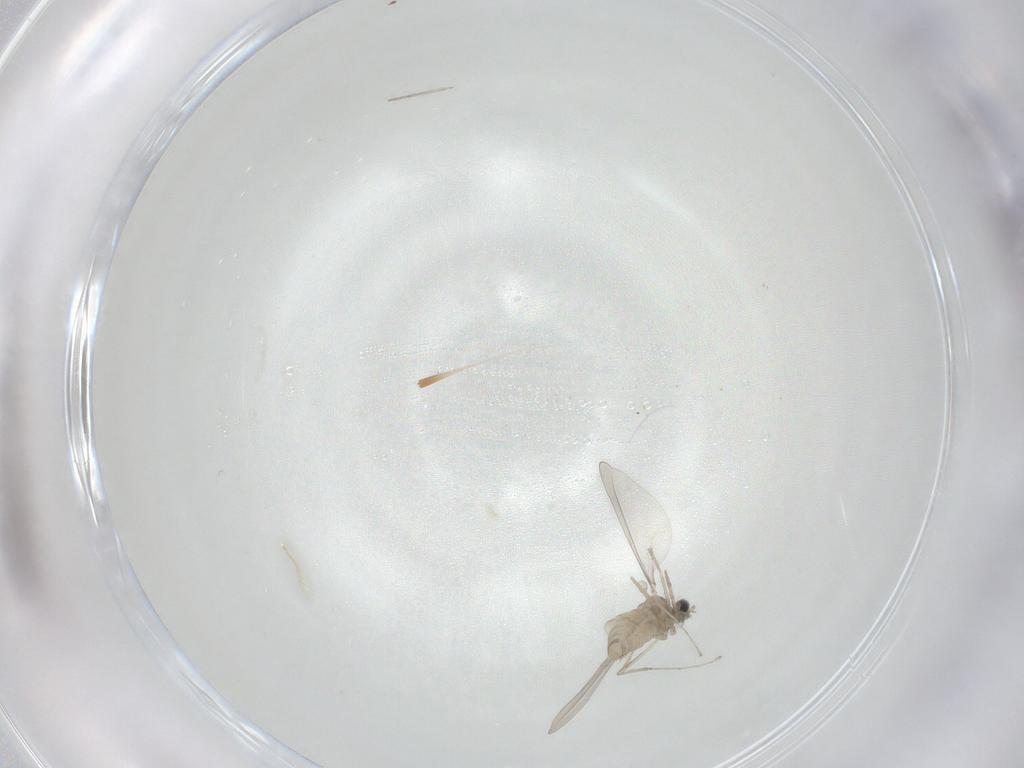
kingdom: Animalia
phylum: Arthropoda
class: Insecta
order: Diptera
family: Cecidomyiidae
